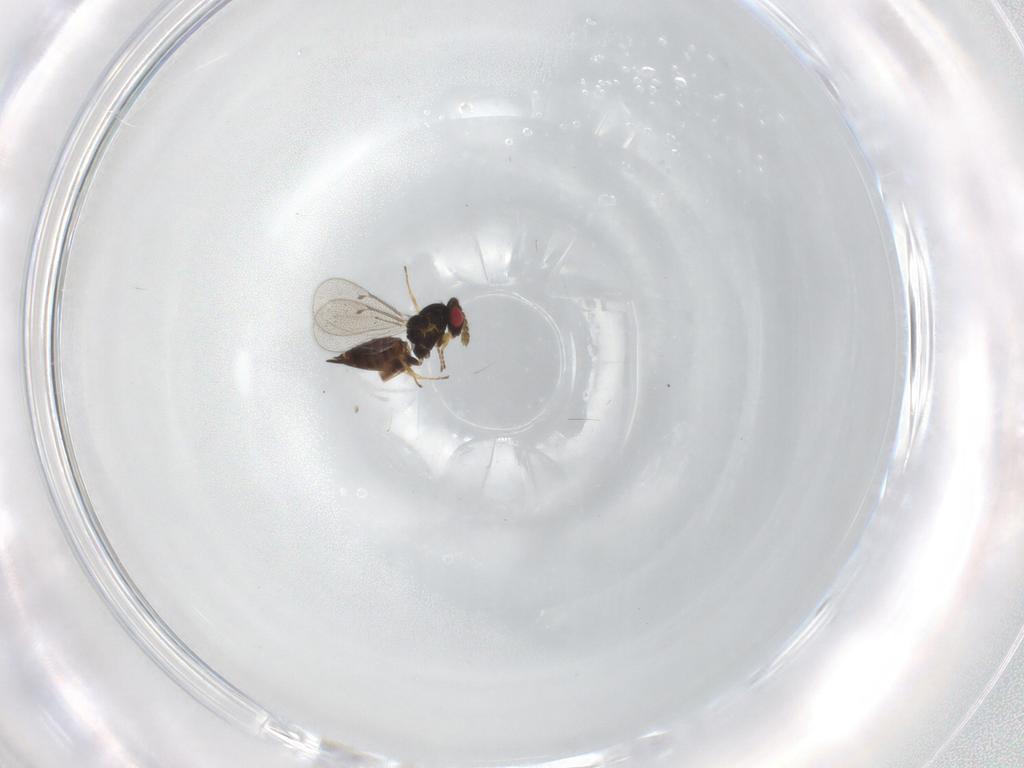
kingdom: Animalia
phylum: Arthropoda
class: Insecta
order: Hymenoptera
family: Eulophidae
